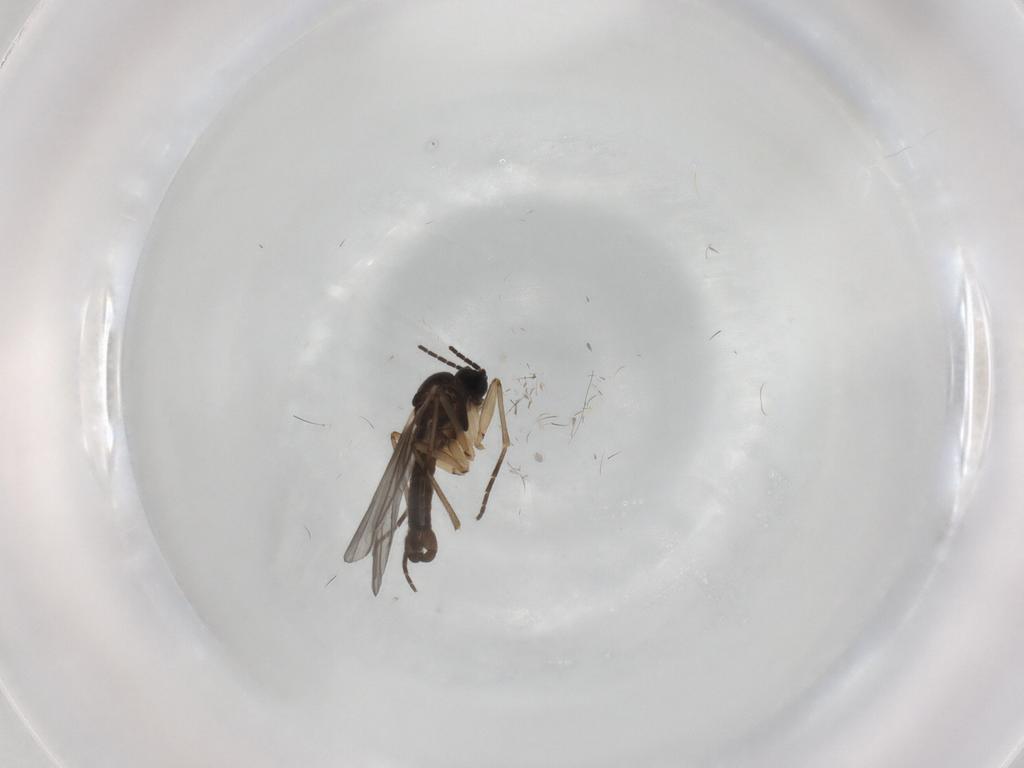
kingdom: Animalia
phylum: Arthropoda
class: Insecta
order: Diptera
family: Sciaridae
